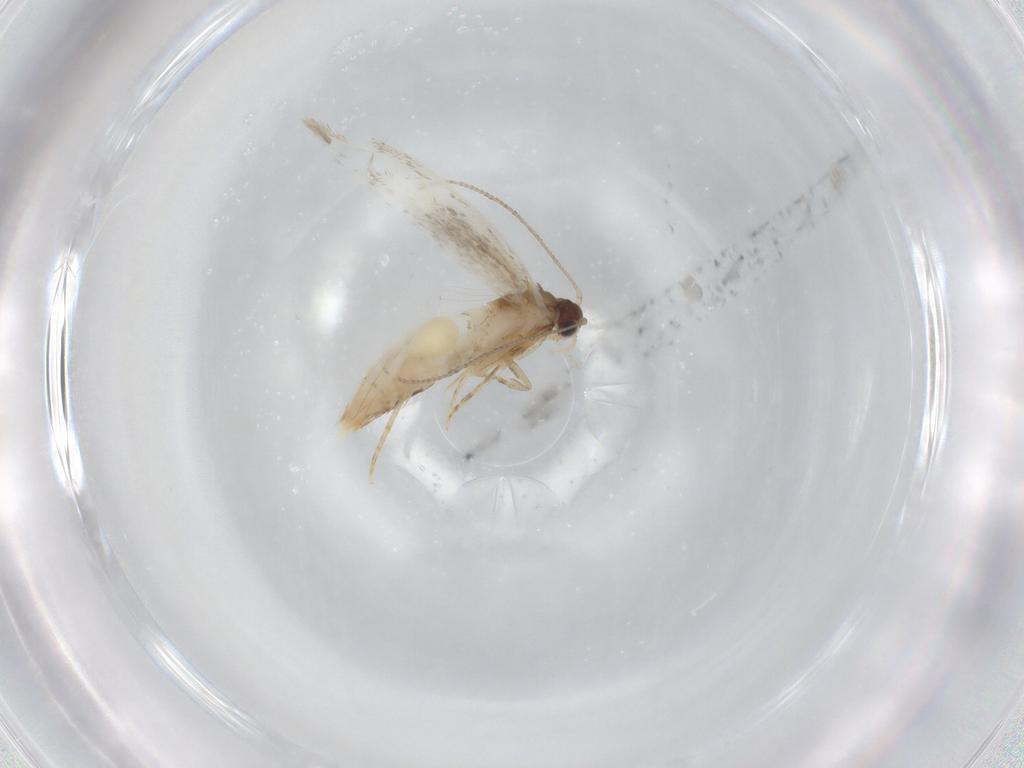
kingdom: Animalia
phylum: Arthropoda
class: Insecta
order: Lepidoptera
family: Tineidae
